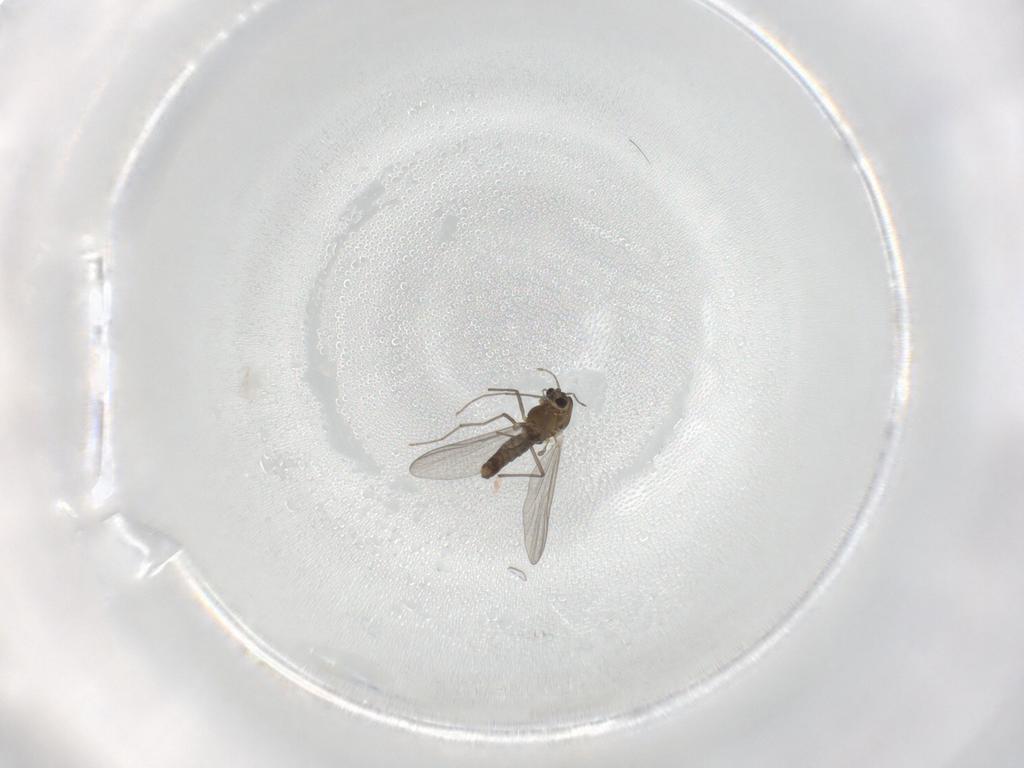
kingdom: Animalia
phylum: Arthropoda
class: Insecta
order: Diptera
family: Chironomidae
